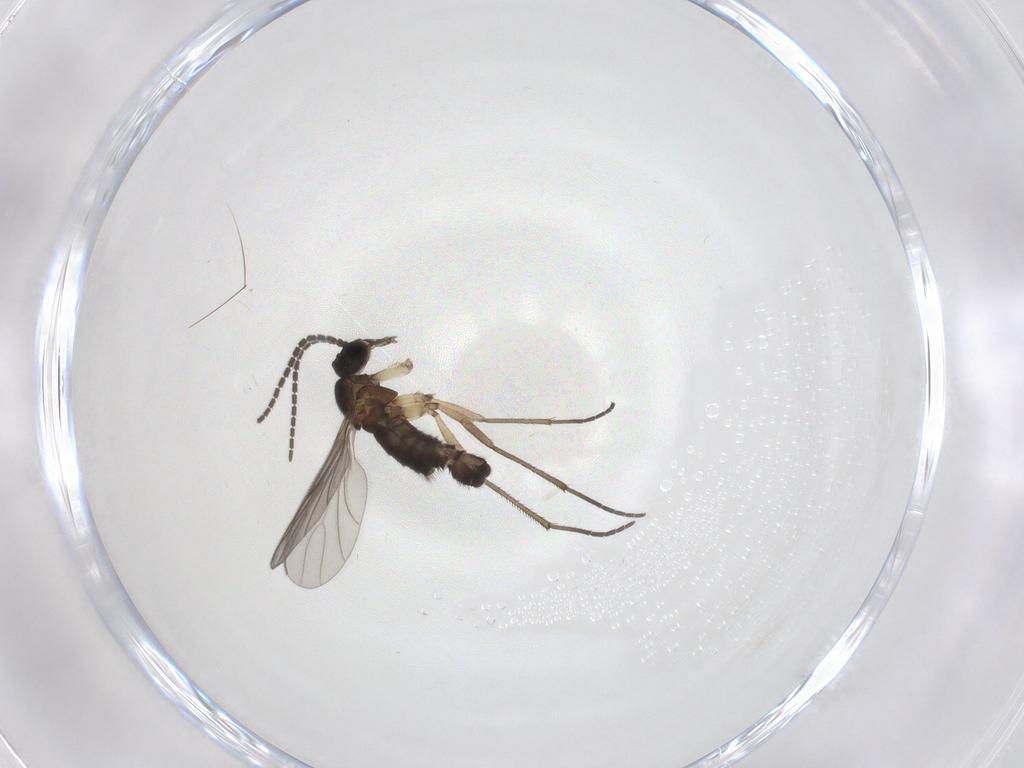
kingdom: Animalia
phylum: Arthropoda
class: Insecta
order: Diptera
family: Sciaridae
